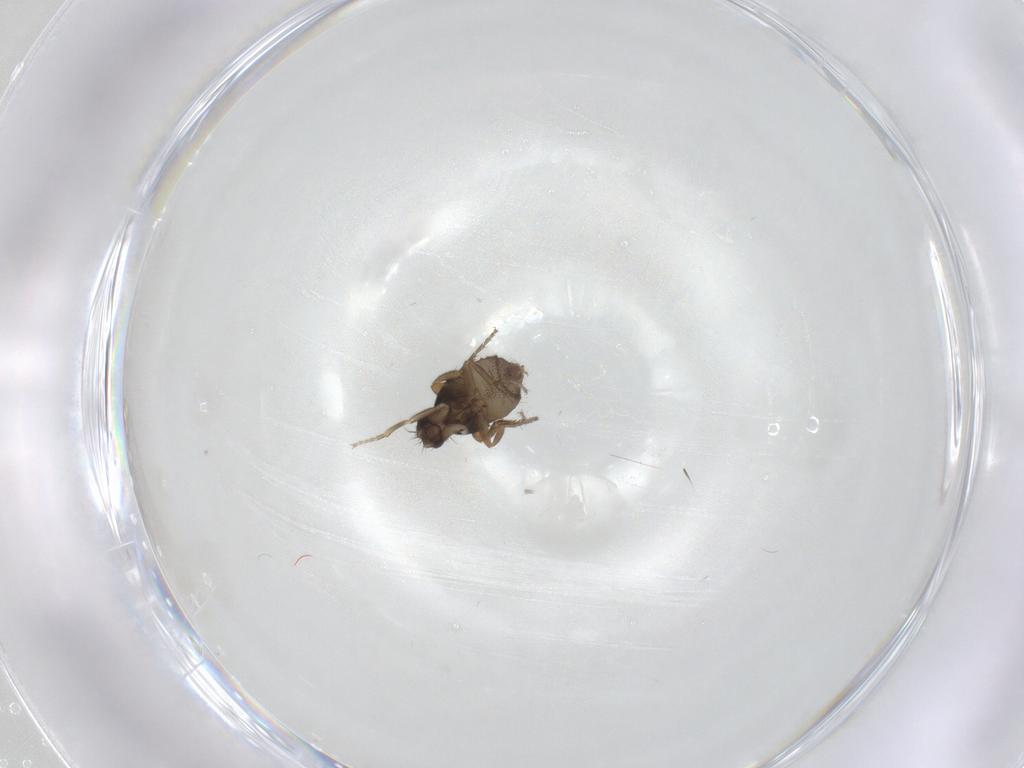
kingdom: Animalia
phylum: Arthropoda
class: Insecta
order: Diptera
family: Phoridae
